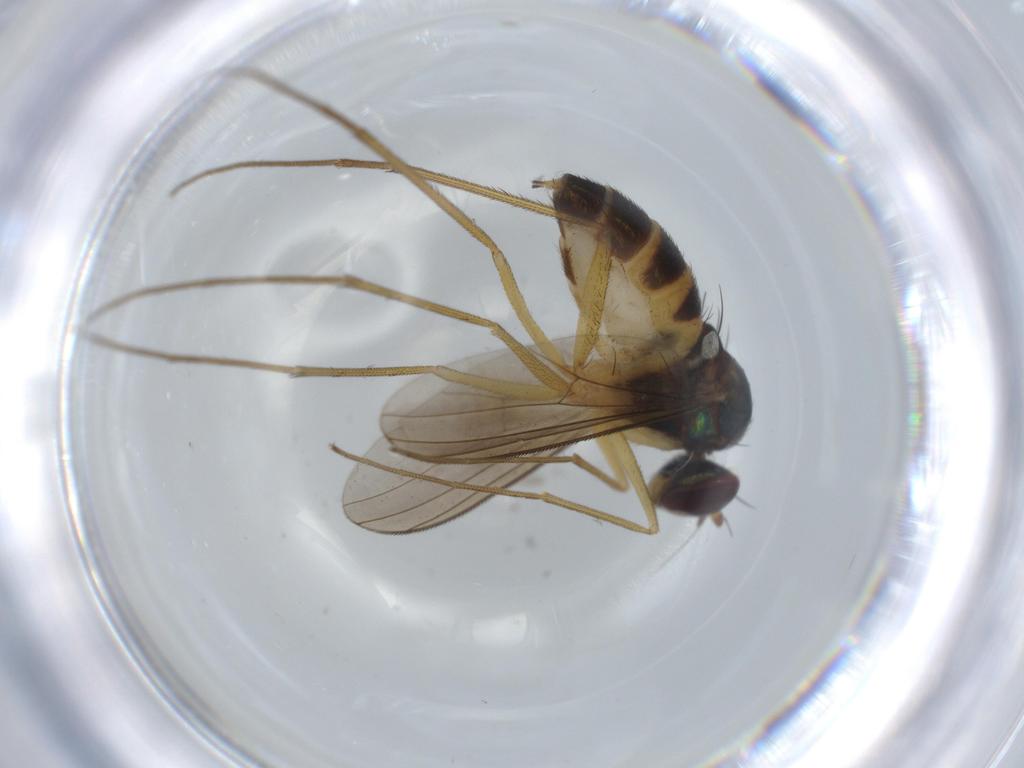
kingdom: Animalia
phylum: Arthropoda
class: Insecta
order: Diptera
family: Dolichopodidae
